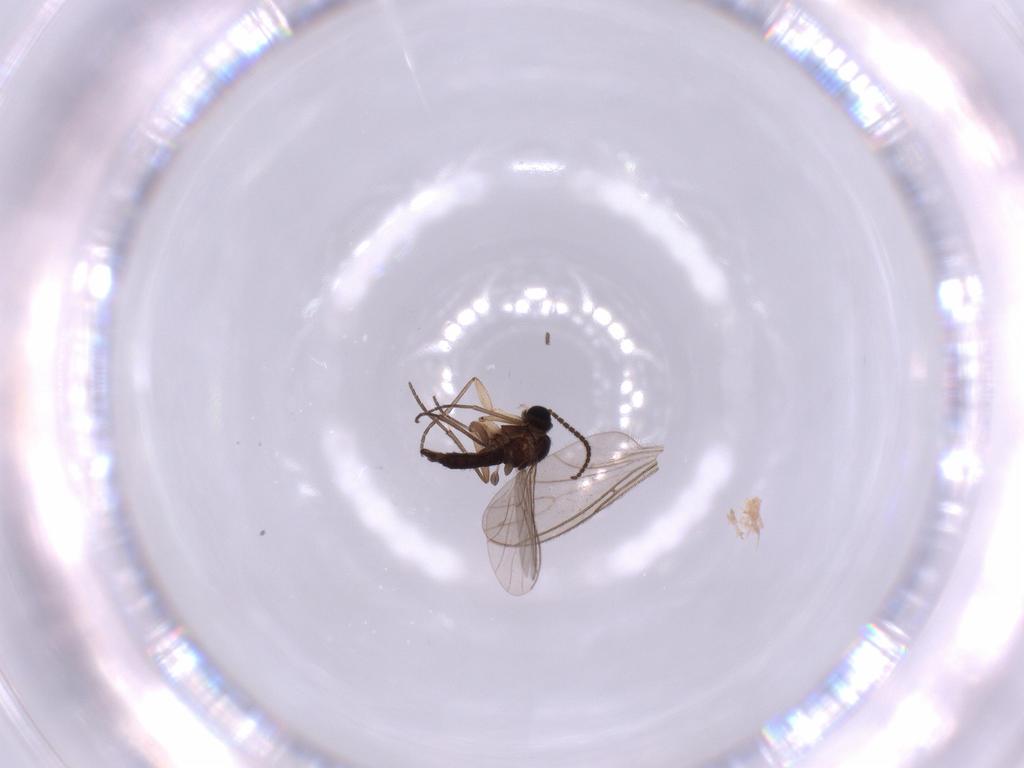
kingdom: Animalia
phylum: Arthropoda
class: Insecta
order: Diptera
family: Sciaridae
